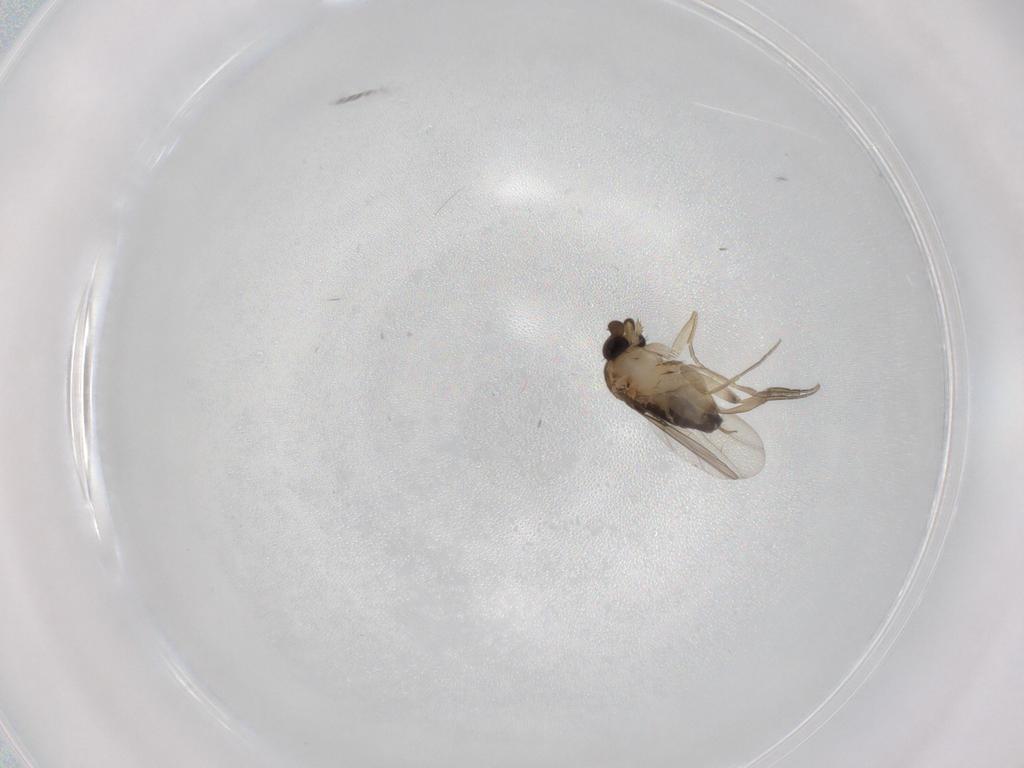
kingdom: Animalia
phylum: Arthropoda
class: Insecta
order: Diptera
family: Phoridae
